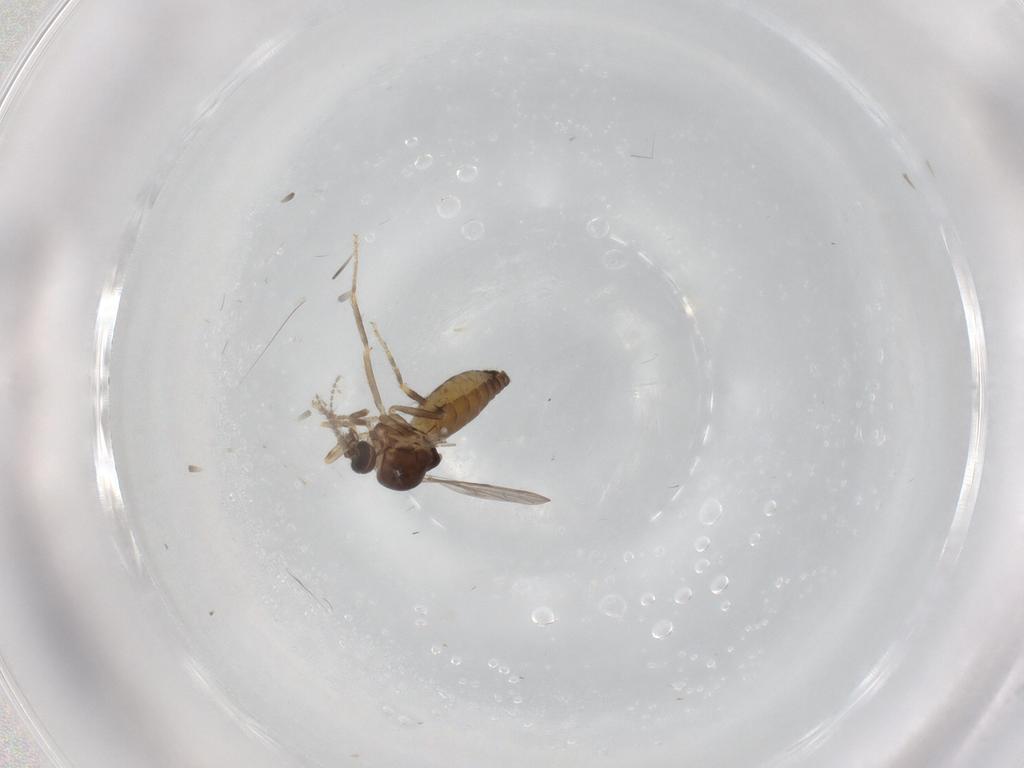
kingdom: Animalia
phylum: Arthropoda
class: Insecta
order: Diptera
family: Ceratopogonidae
